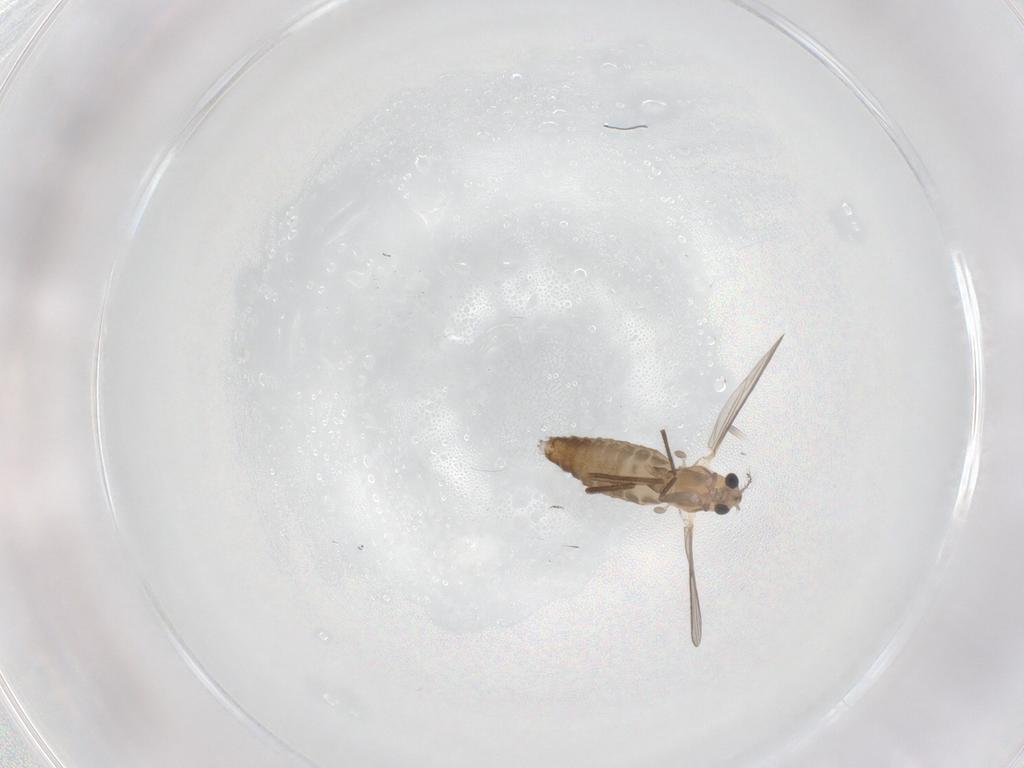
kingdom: Animalia
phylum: Arthropoda
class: Insecta
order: Diptera
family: Chironomidae
